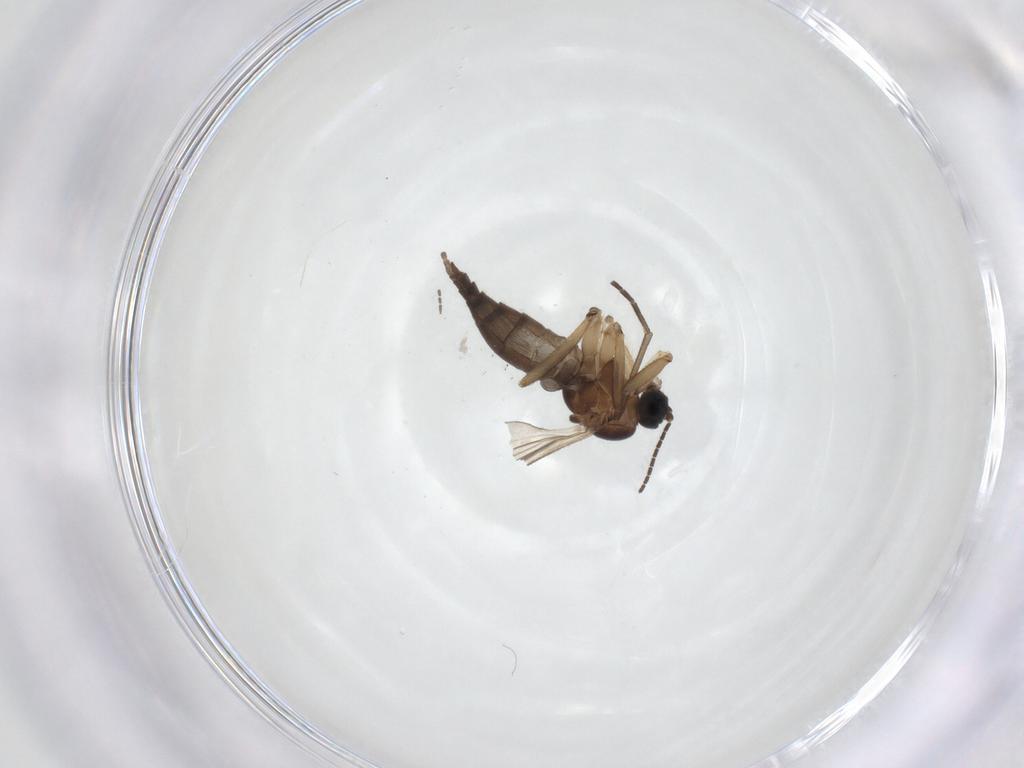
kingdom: Animalia
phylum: Arthropoda
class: Insecta
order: Diptera
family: Sciaridae
